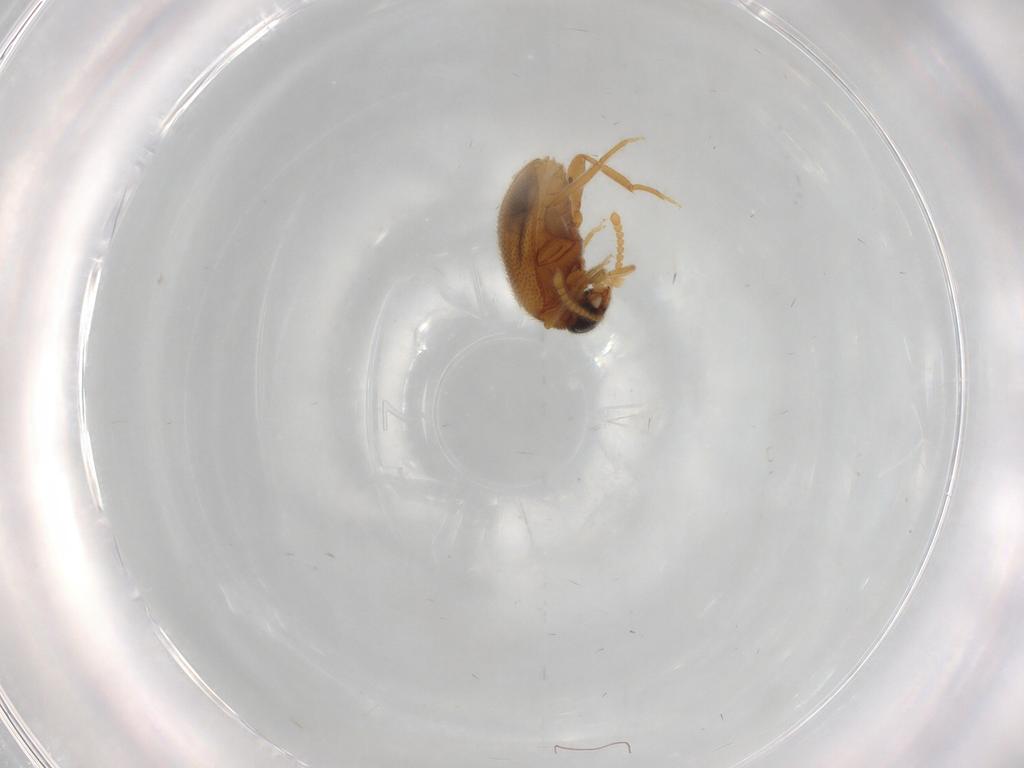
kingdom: Animalia
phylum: Arthropoda
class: Insecta
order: Coleoptera
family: Aderidae
